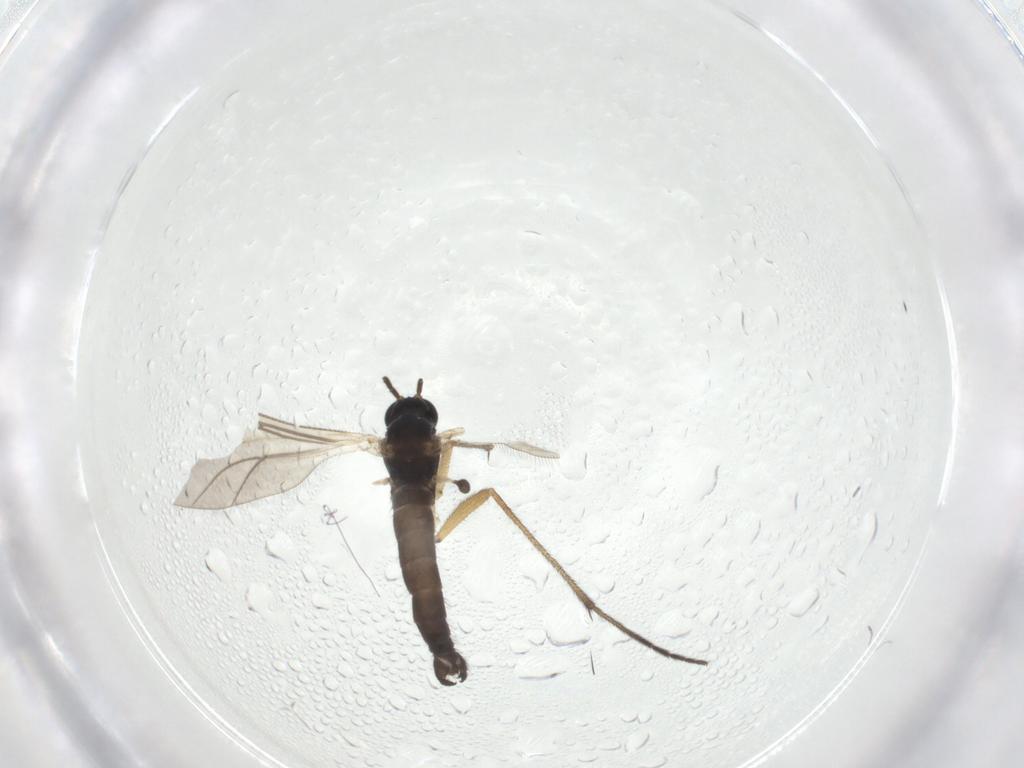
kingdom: Animalia
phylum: Arthropoda
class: Insecta
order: Diptera
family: Sciaridae
